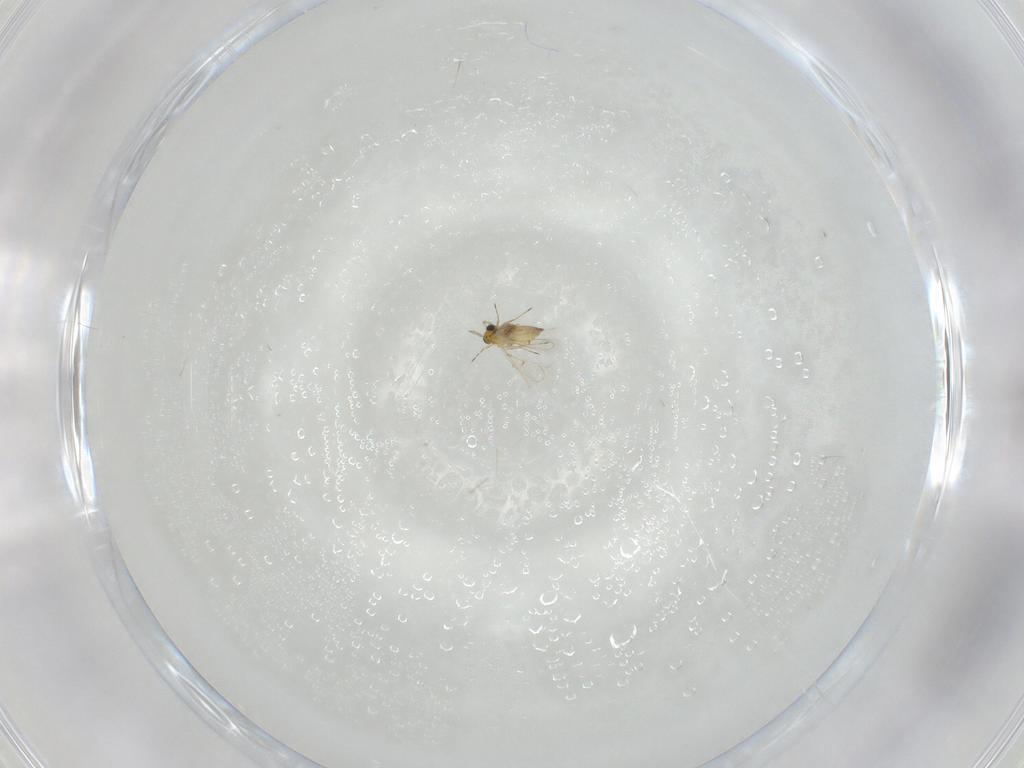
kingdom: Animalia
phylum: Arthropoda
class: Insecta
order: Hymenoptera
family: Trichogrammatidae
